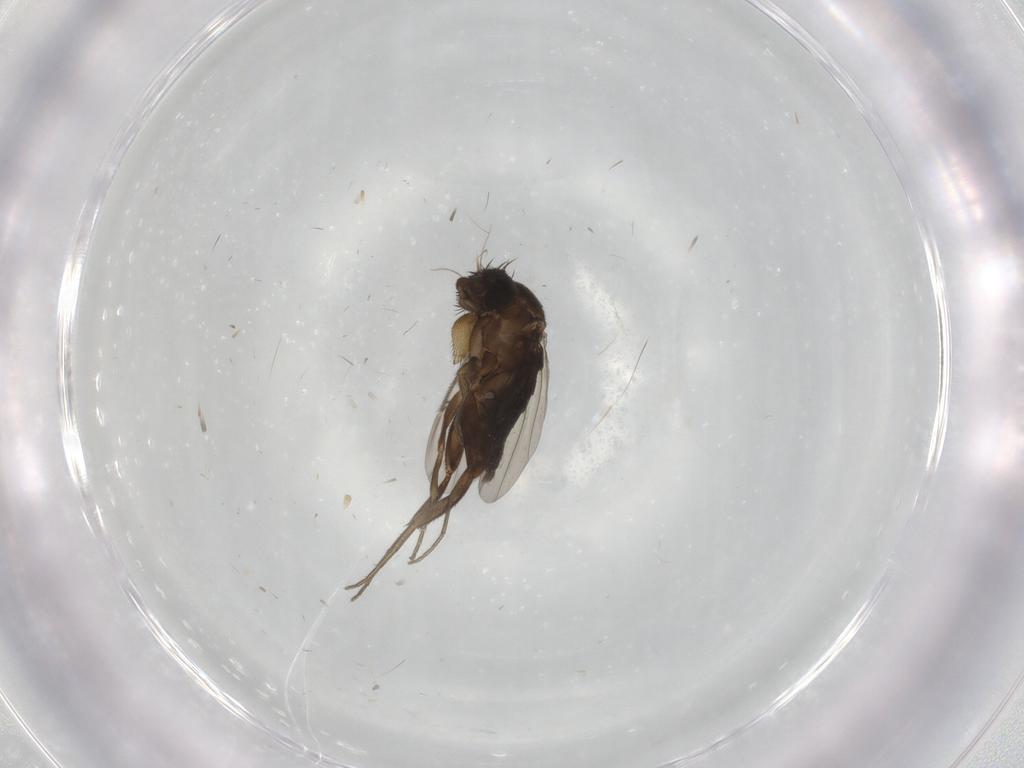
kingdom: Animalia
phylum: Arthropoda
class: Insecta
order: Diptera
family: Phoridae
